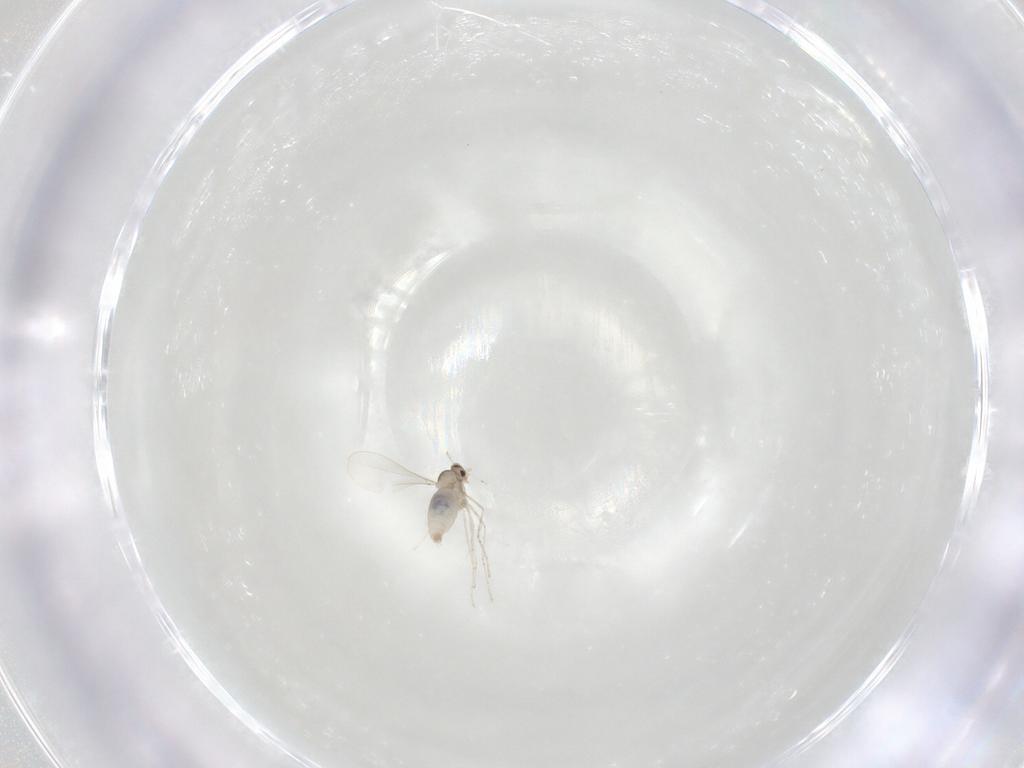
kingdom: Animalia
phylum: Arthropoda
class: Insecta
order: Diptera
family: Cecidomyiidae
